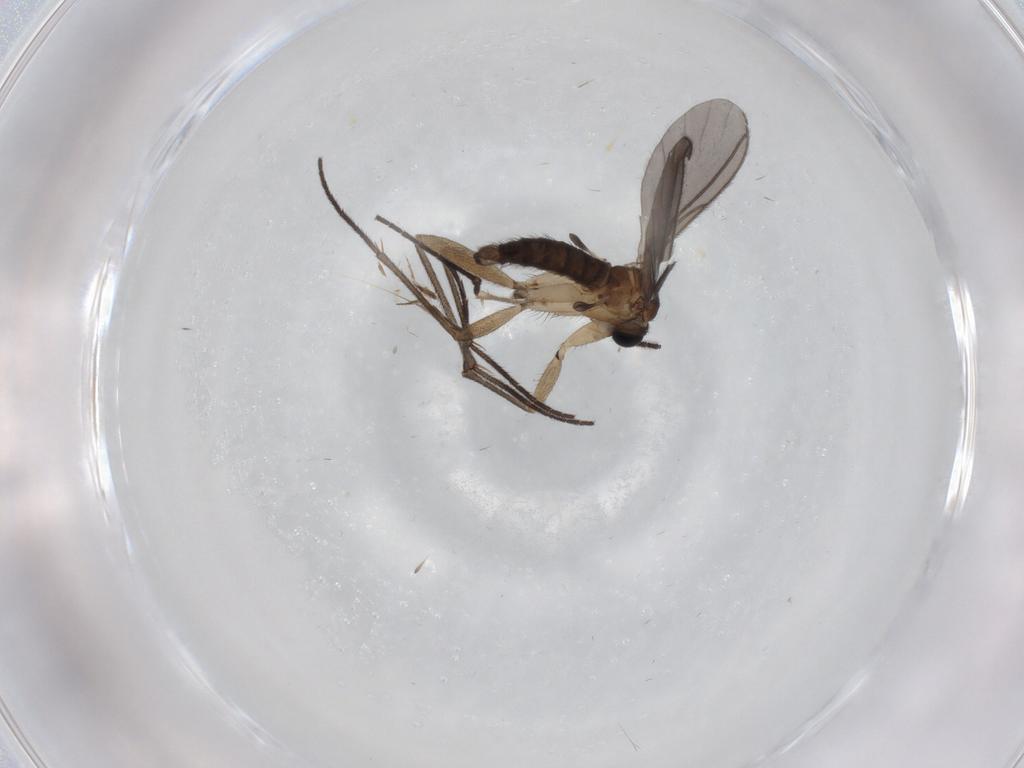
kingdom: Animalia
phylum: Arthropoda
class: Insecta
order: Diptera
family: Sciaridae
